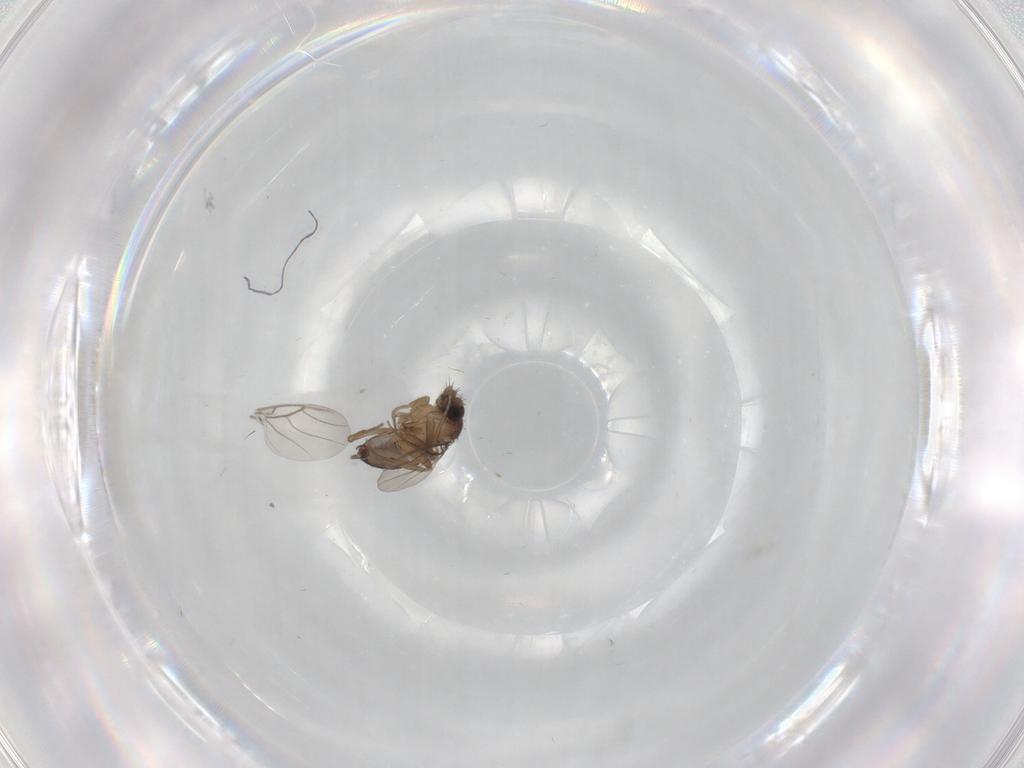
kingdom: Animalia
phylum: Arthropoda
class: Insecta
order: Diptera
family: Phoridae
